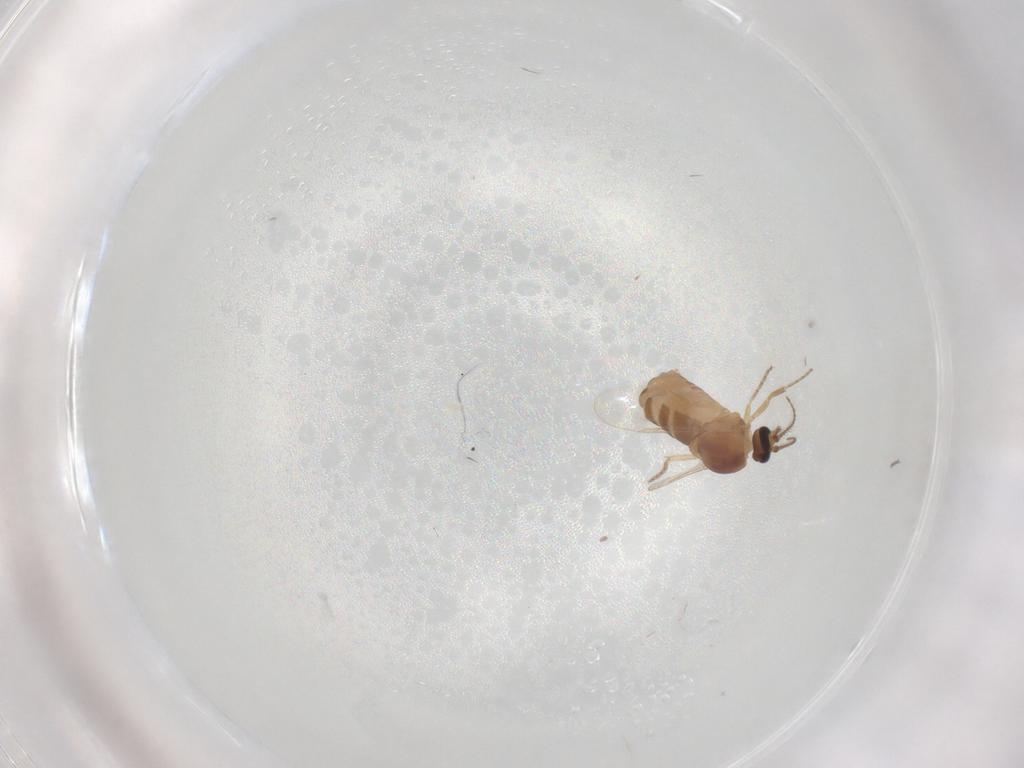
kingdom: Animalia
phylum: Arthropoda
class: Insecta
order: Diptera
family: Ceratopogonidae
